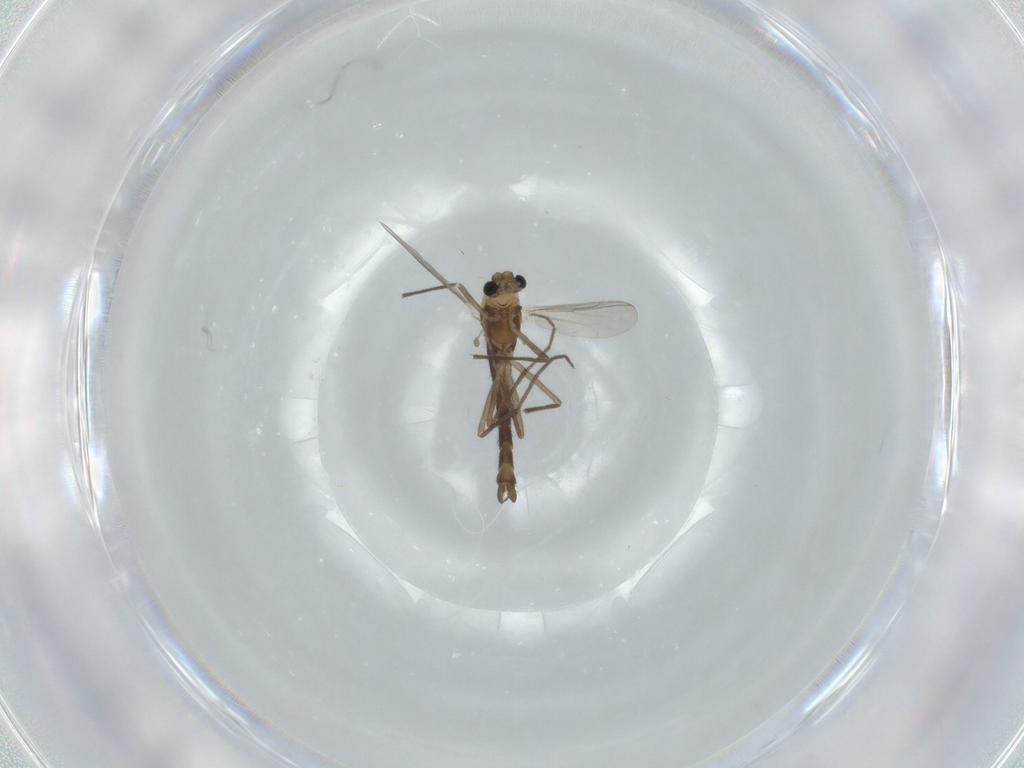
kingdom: Animalia
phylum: Arthropoda
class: Insecta
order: Diptera
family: Chironomidae
